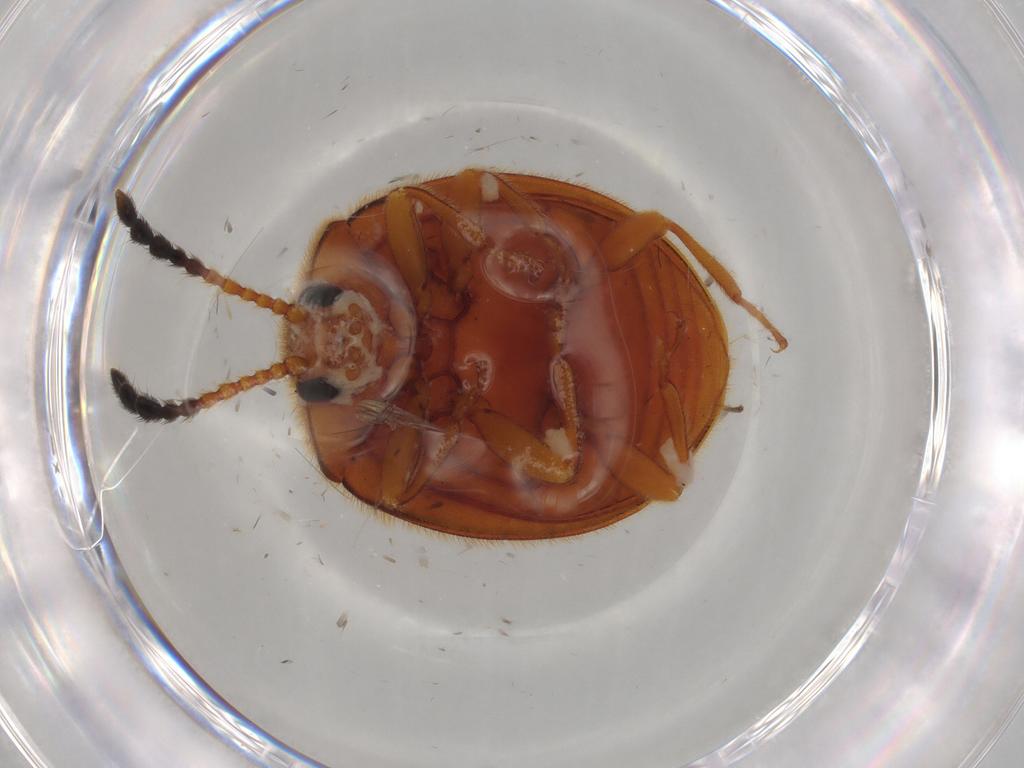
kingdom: Animalia
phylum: Arthropoda
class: Insecta
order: Coleoptera
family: Endomychidae
